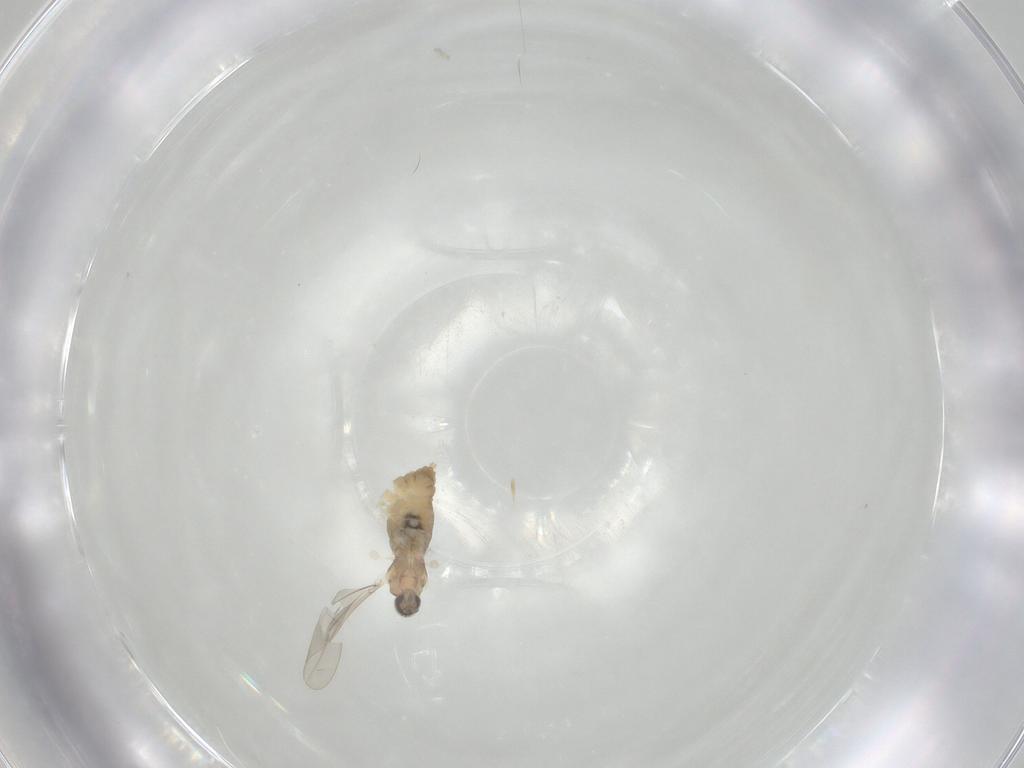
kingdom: Animalia
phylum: Arthropoda
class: Insecta
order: Diptera
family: Cecidomyiidae
